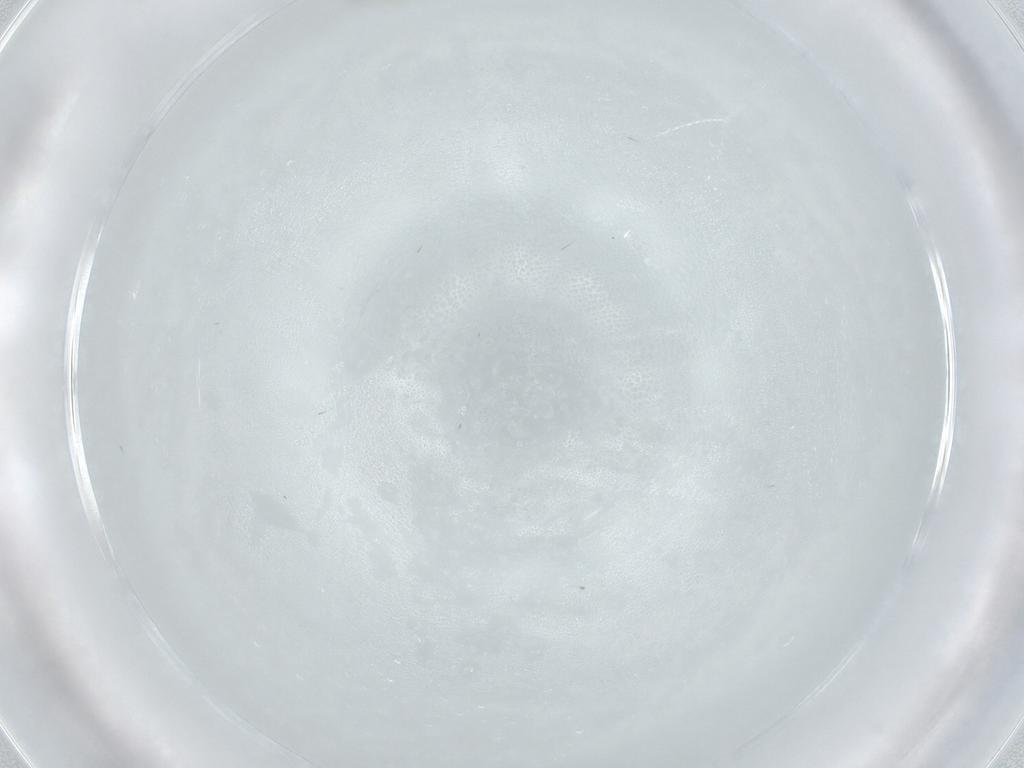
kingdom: Animalia
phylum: Arthropoda
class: Insecta
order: Diptera
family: Cecidomyiidae
